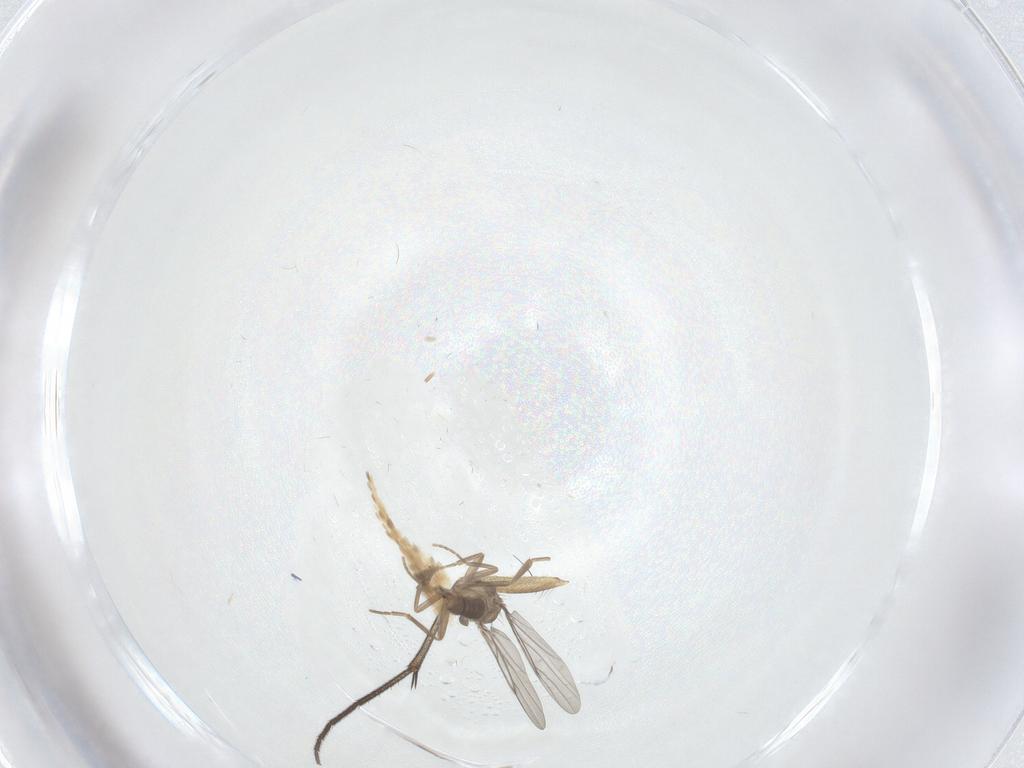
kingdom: Animalia
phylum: Arthropoda
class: Insecta
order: Diptera
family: Mycetophilidae
